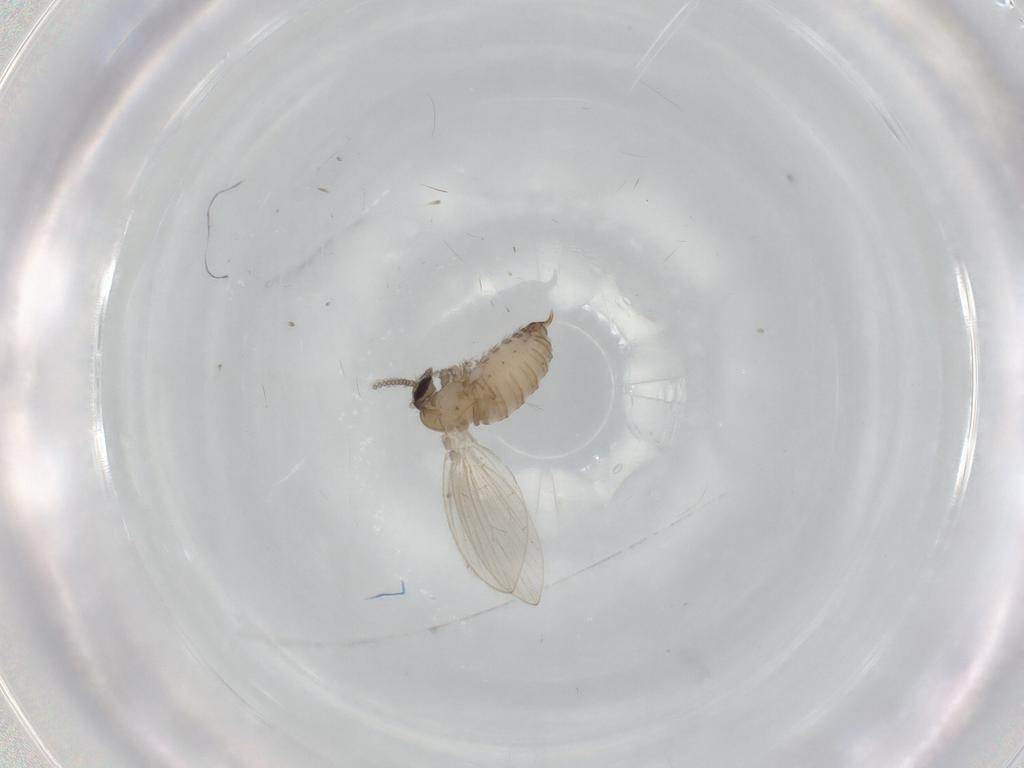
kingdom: Animalia
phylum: Arthropoda
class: Insecta
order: Diptera
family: Psychodidae
